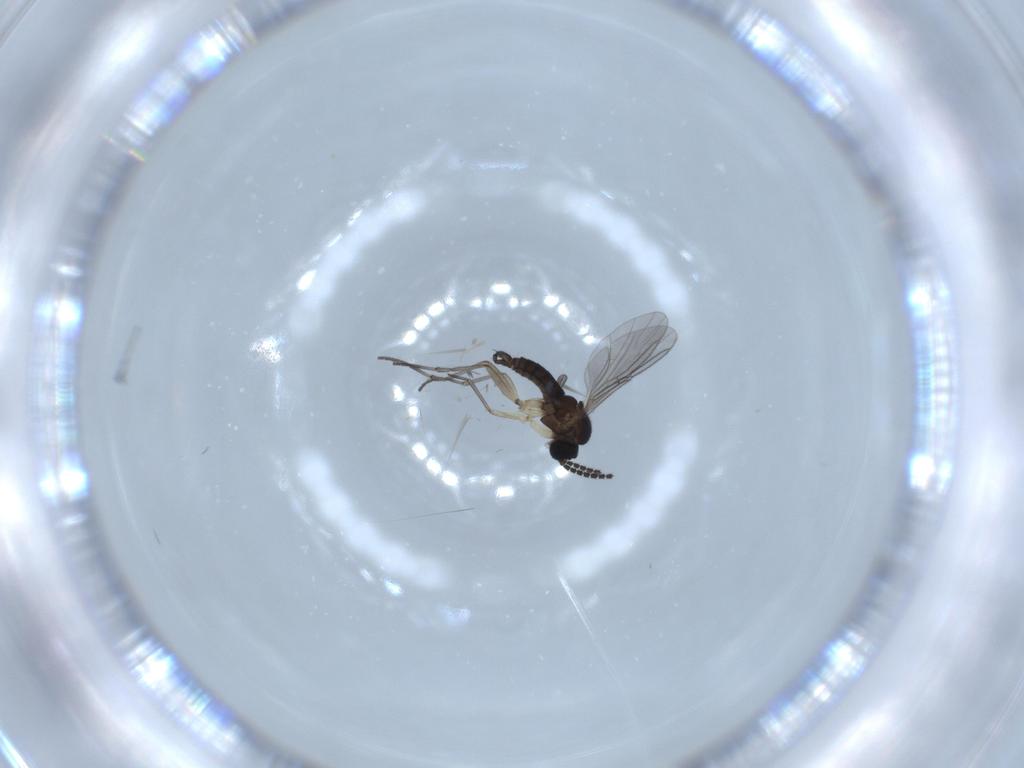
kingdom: Animalia
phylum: Arthropoda
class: Insecta
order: Diptera
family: Sciaridae
